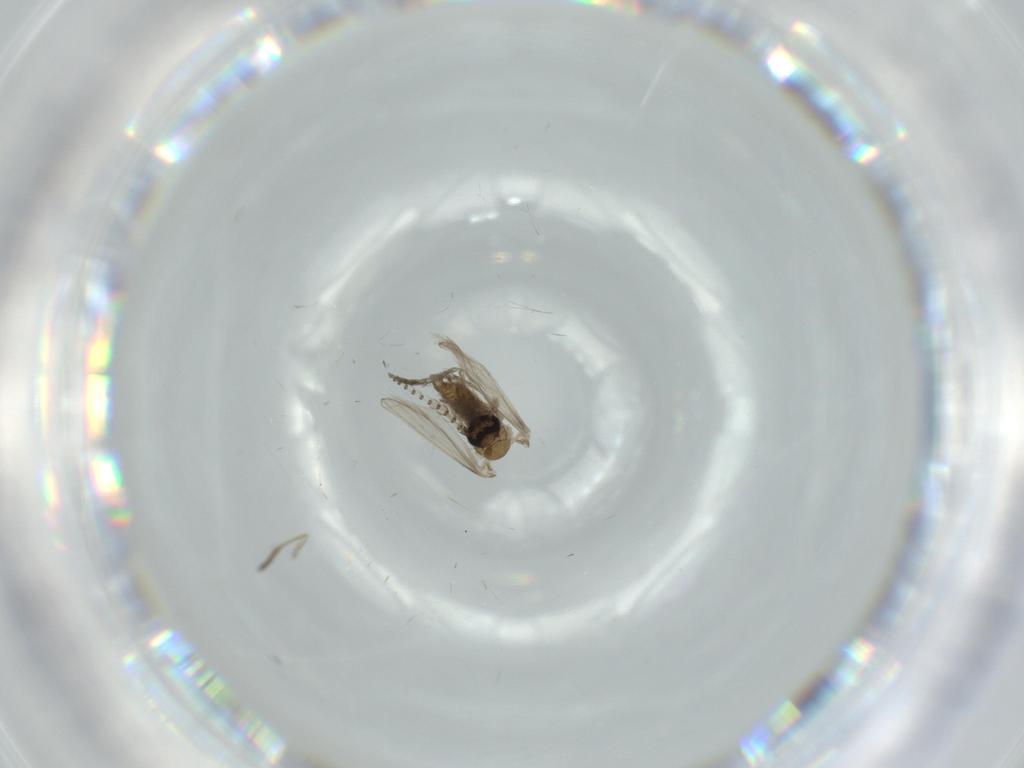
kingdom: Animalia
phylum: Arthropoda
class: Insecta
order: Diptera
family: Psychodidae
